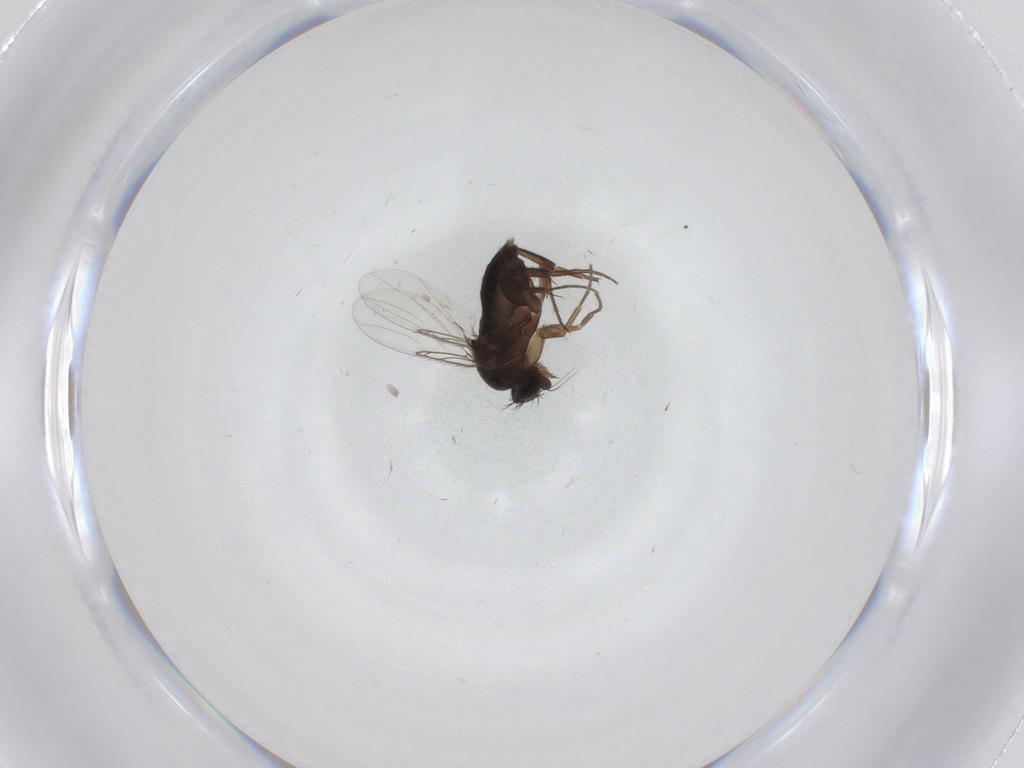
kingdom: Animalia
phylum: Arthropoda
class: Insecta
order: Diptera
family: Phoridae
